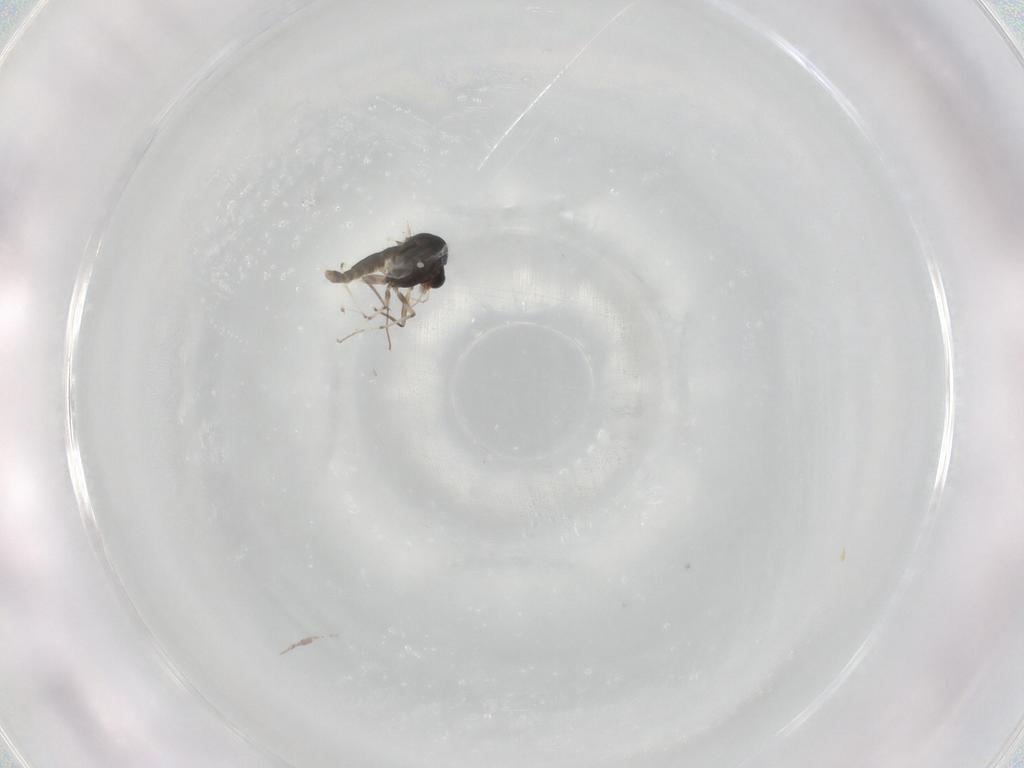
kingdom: Animalia
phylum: Arthropoda
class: Insecta
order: Diptera
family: Chironomidae
